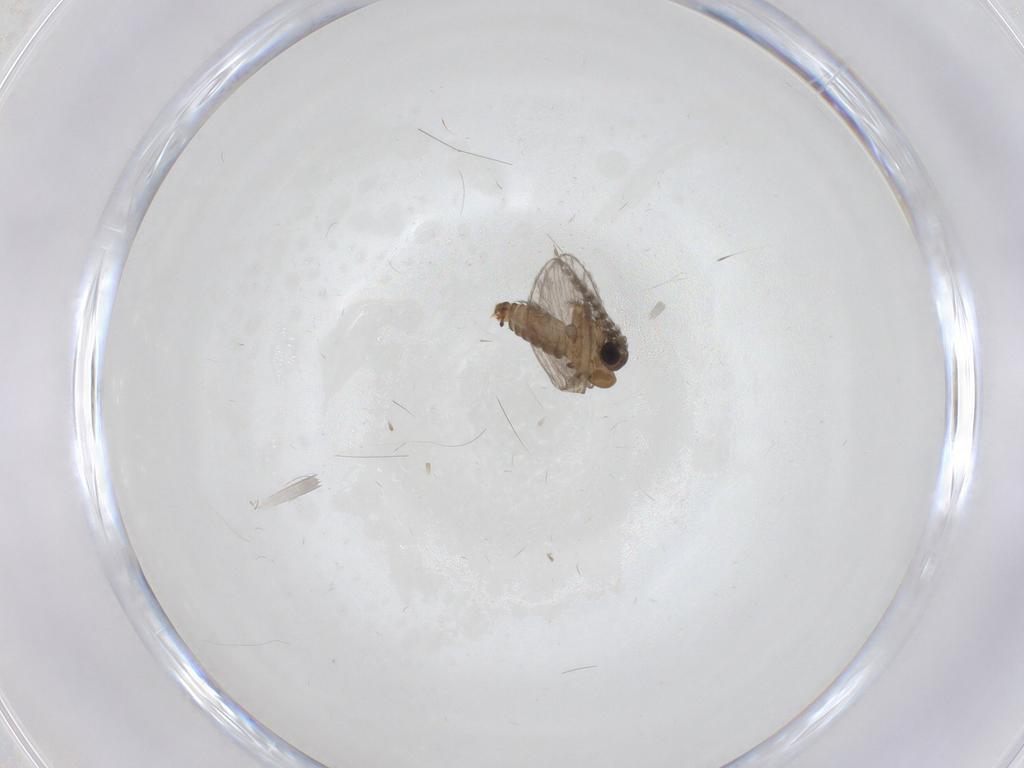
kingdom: Animalia
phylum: Arthropoda
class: Insecta
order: Diptera
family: Psychodidae
